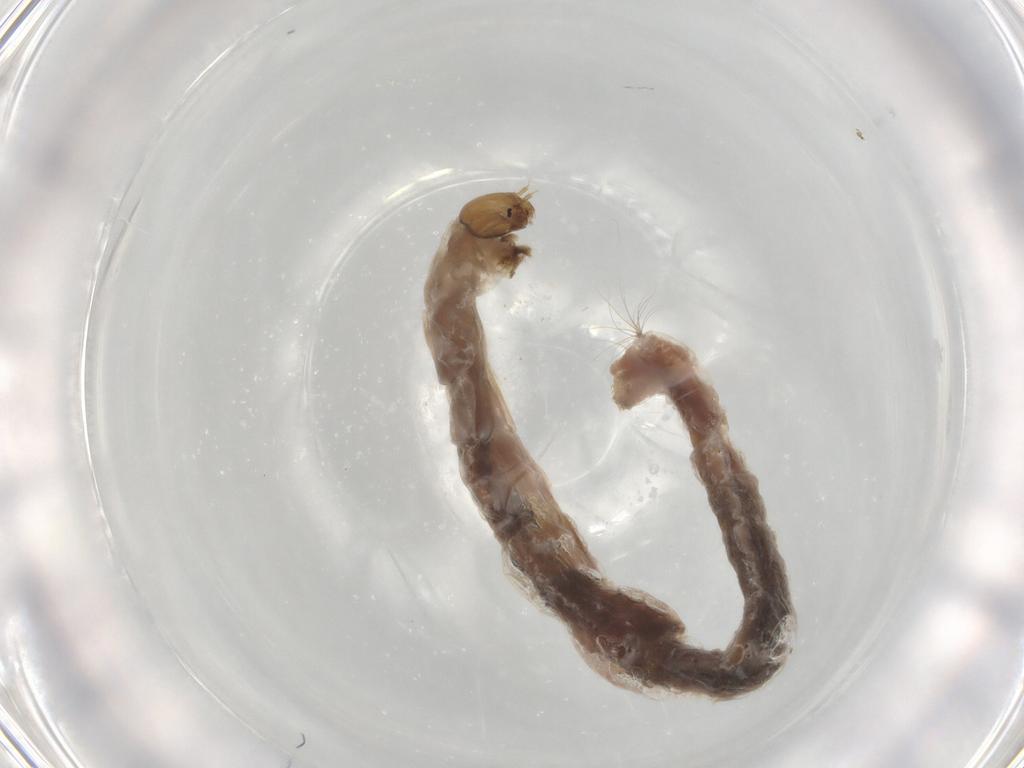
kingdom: Animalia
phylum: Arthropoda
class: Insecta
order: Diptera
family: Chironomidae
